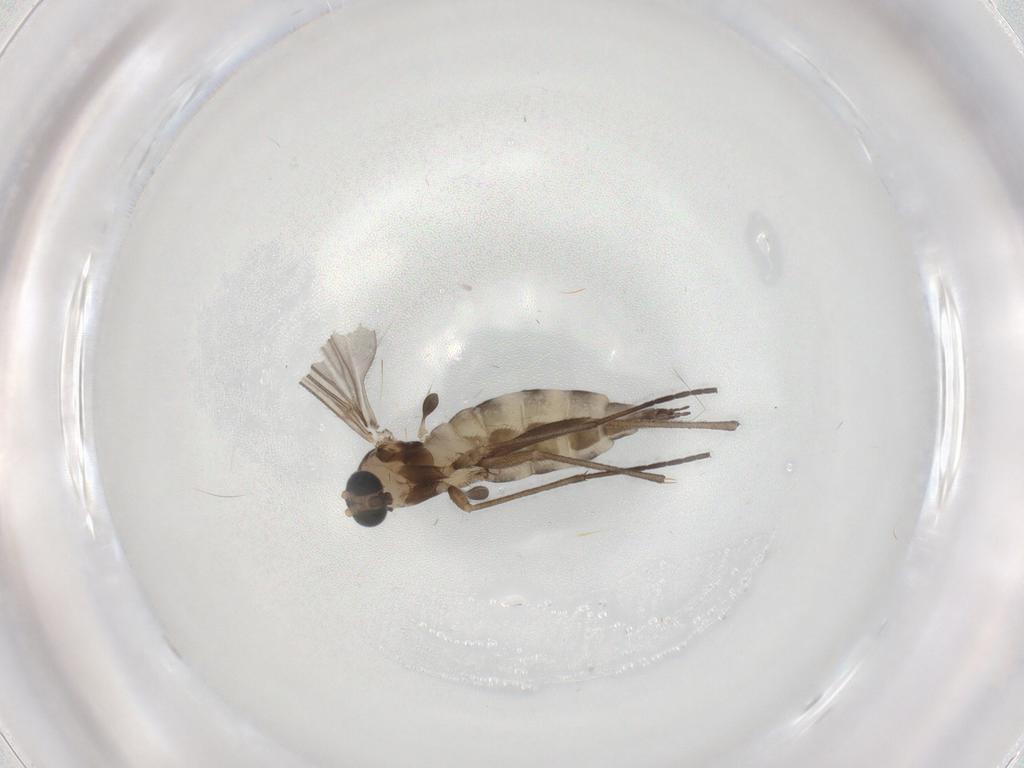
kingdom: Animalia
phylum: Arthropoda
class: Insecta
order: Diptera
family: Sciaridae
